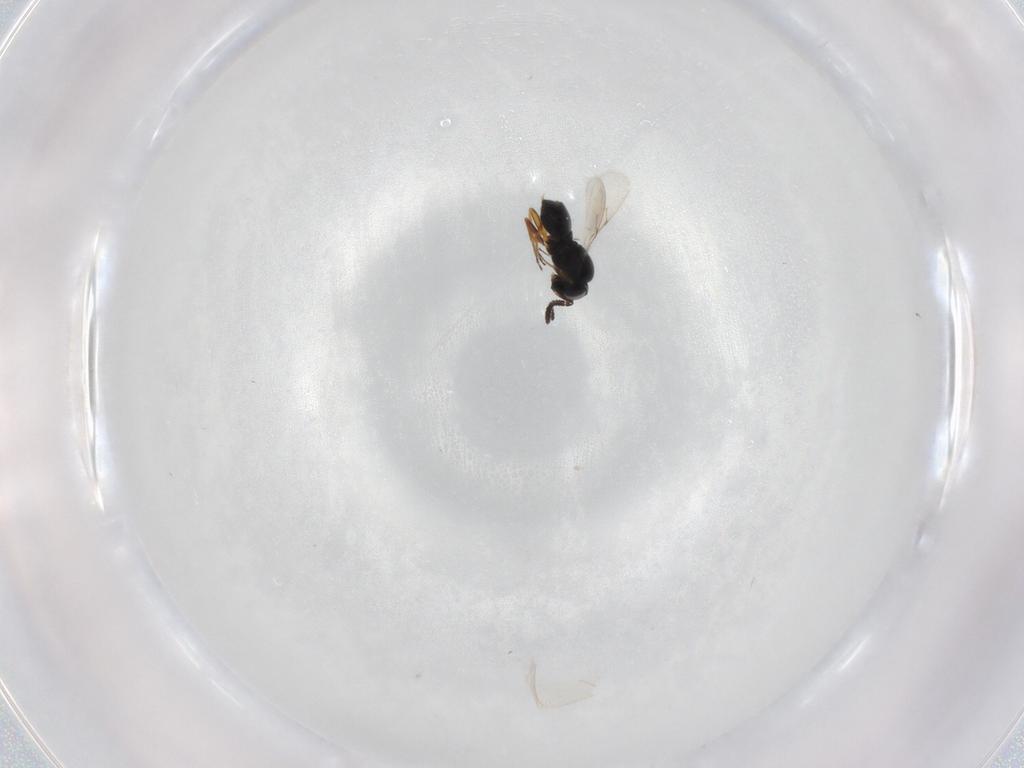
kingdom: Animalia
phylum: Arthropoda
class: Insecta
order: Hymenoptera
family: Scelionidae
